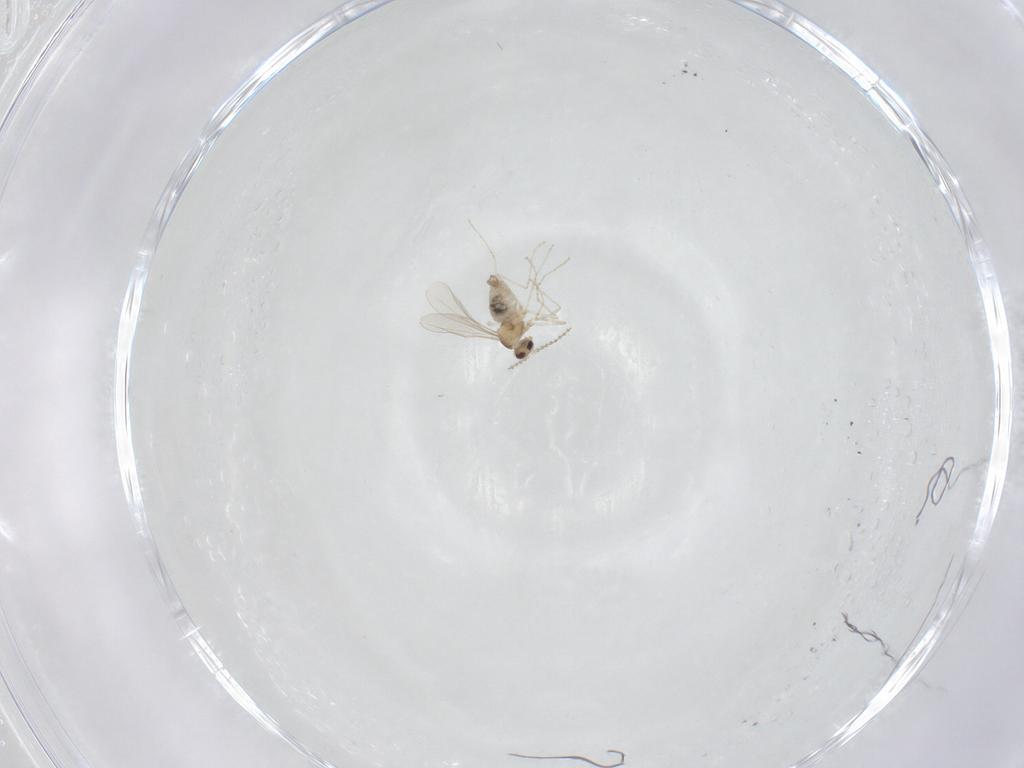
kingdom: Animalia
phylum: Arthropoda
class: Insecta
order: Diptera
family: Cecidomyiidae
